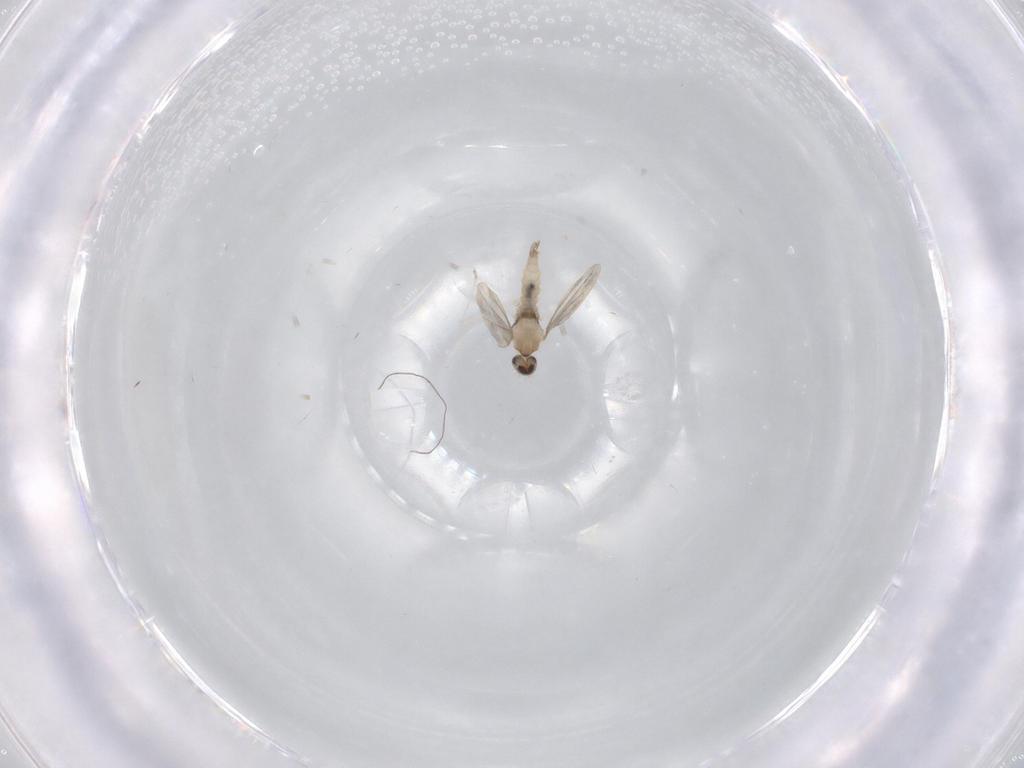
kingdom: Animalia
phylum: Arthropoda
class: Insecta
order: Diptera
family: Cecidomyiidae
